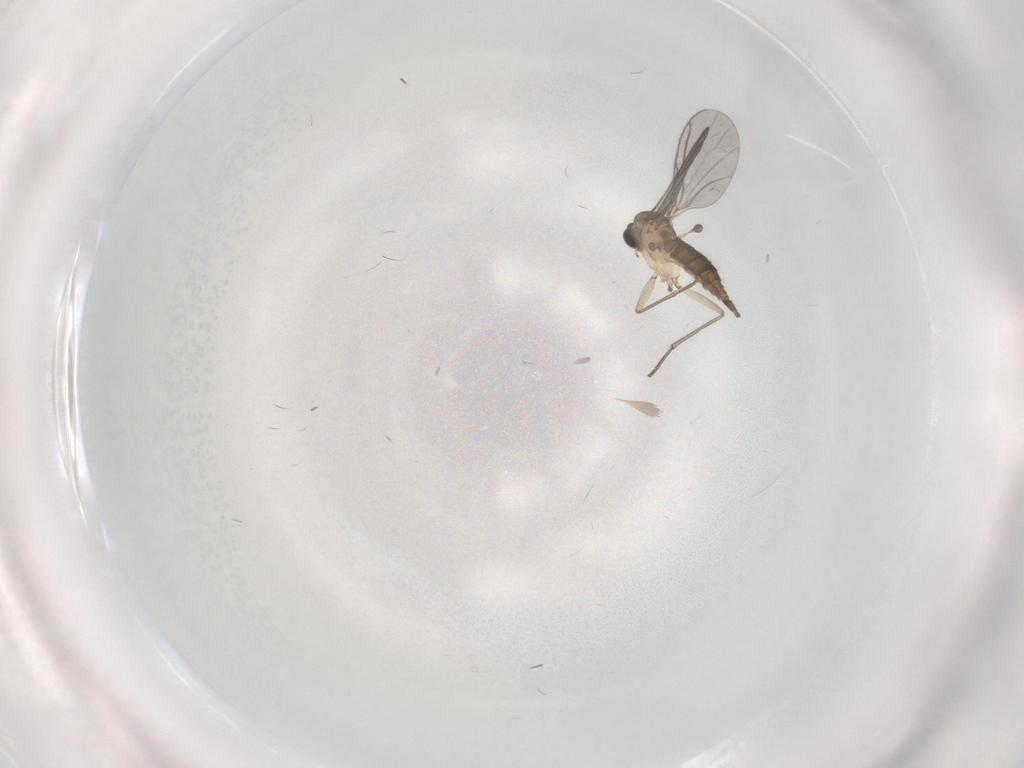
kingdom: Animalia
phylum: Arthropoda
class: Insecta
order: Diptera
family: Sciaridae
